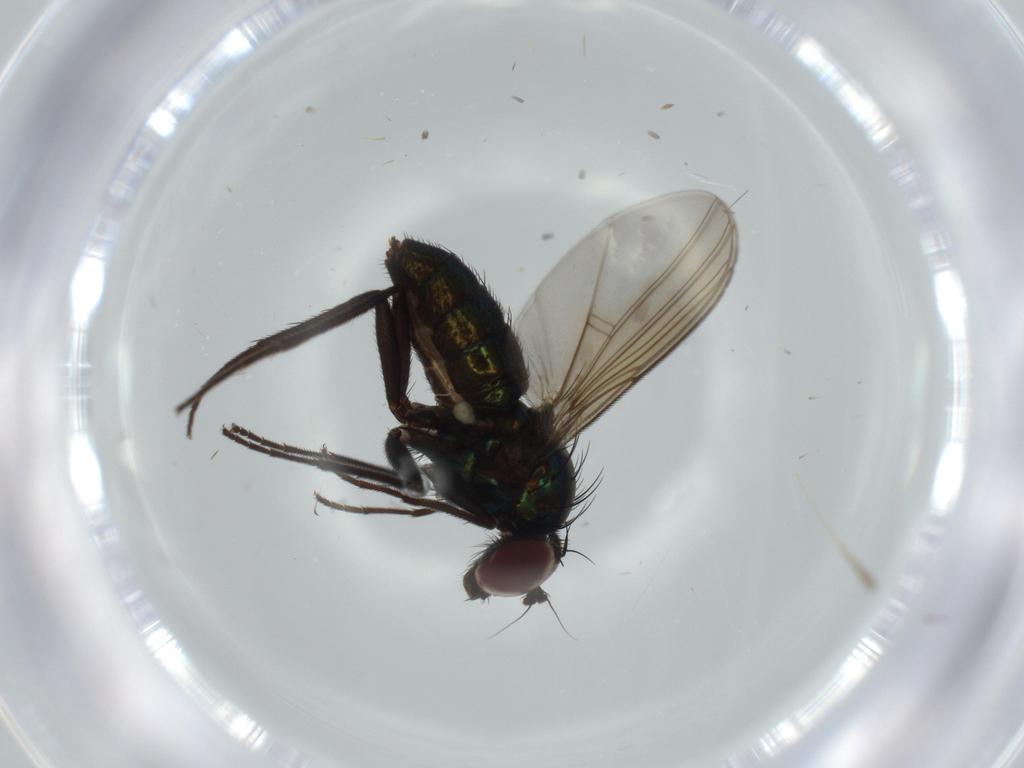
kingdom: Animalia
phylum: Arthropoda
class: Insecta
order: Diptera
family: Dolichopodidae
